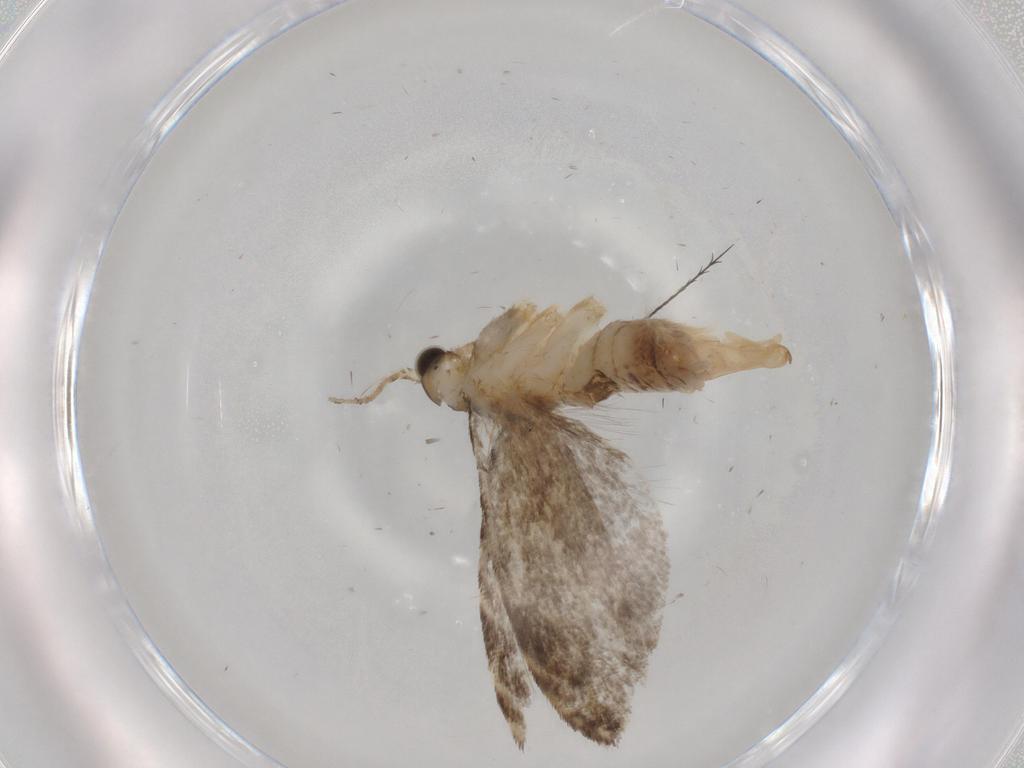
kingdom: Animalia
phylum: Arthropoda
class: Insecta
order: Lepidoptera
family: Tineidae
